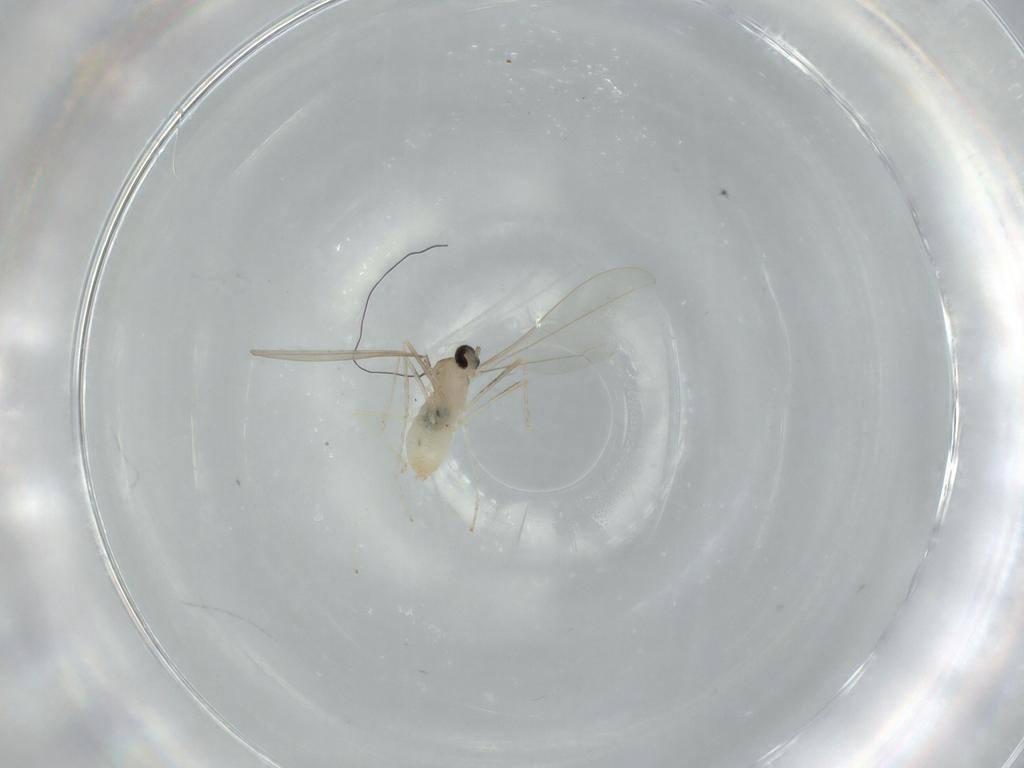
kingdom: Animalia
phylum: Arthropoda
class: Insecta
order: Diptera
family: Cecidomyiidae
